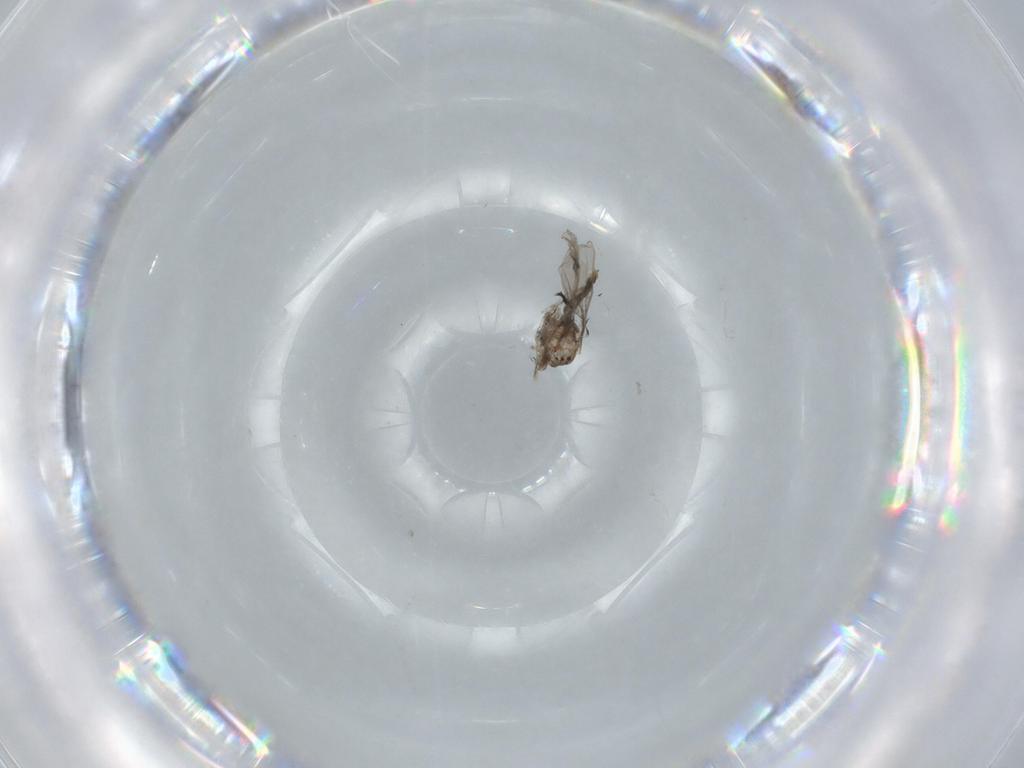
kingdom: Animalia
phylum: Arthropoda
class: Insecta
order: Diptera
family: Cecidomyiidae
